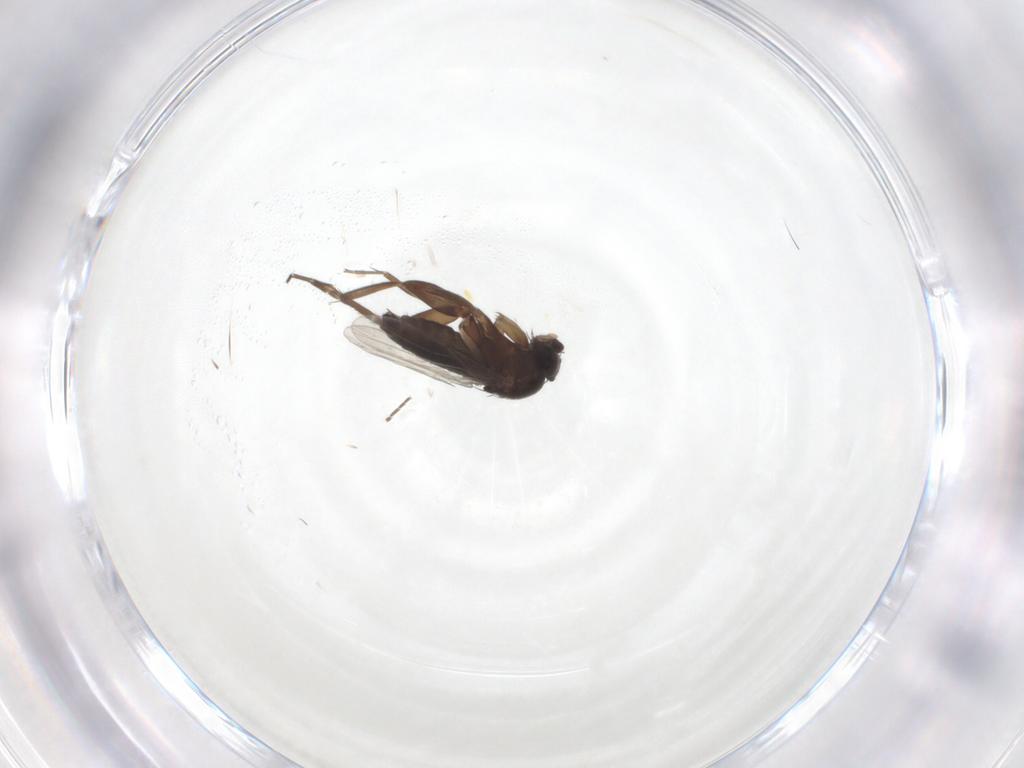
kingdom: Animalia
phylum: Arthropoda
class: Insecta
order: Diptera
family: Phoridae
